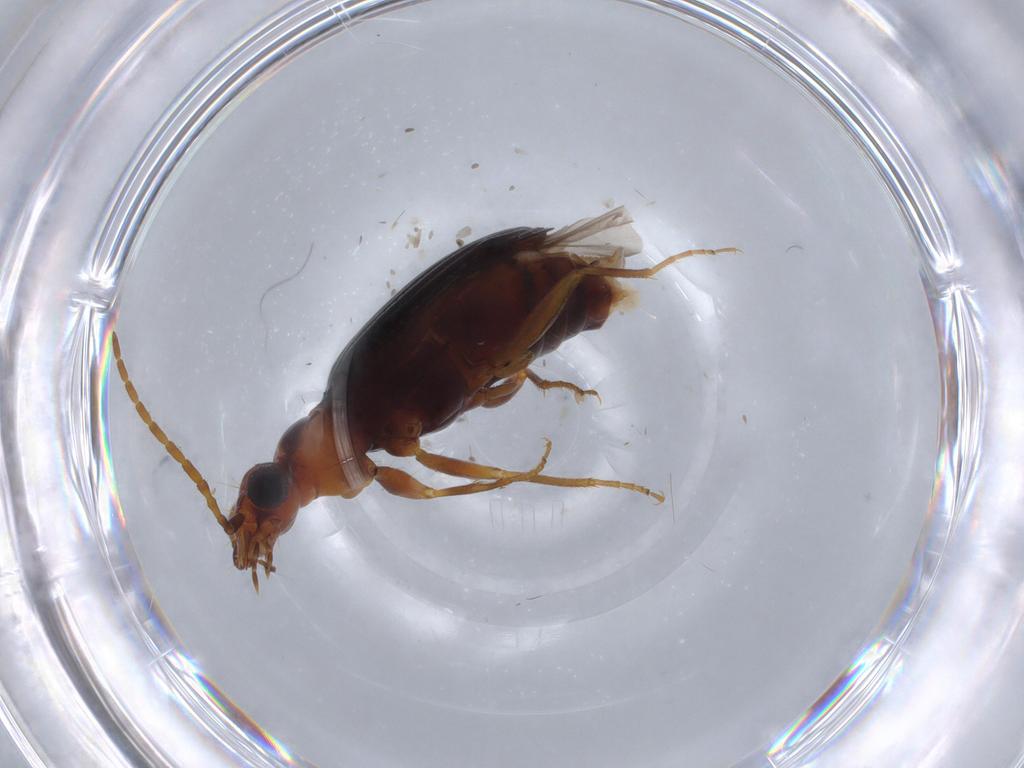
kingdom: Animalia
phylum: Arthropoda
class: Insecta
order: Coleoptera
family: Carabidae
